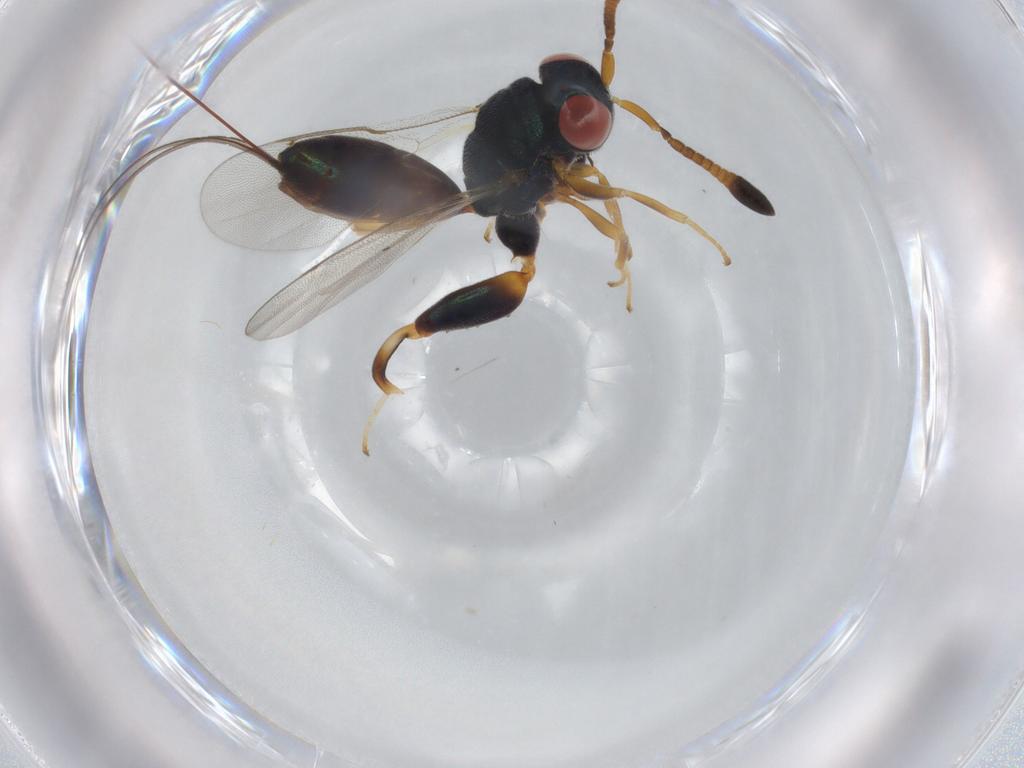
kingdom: Animalia
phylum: Arthropoda
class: Insecta
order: Hymenoptera
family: Torymidae
